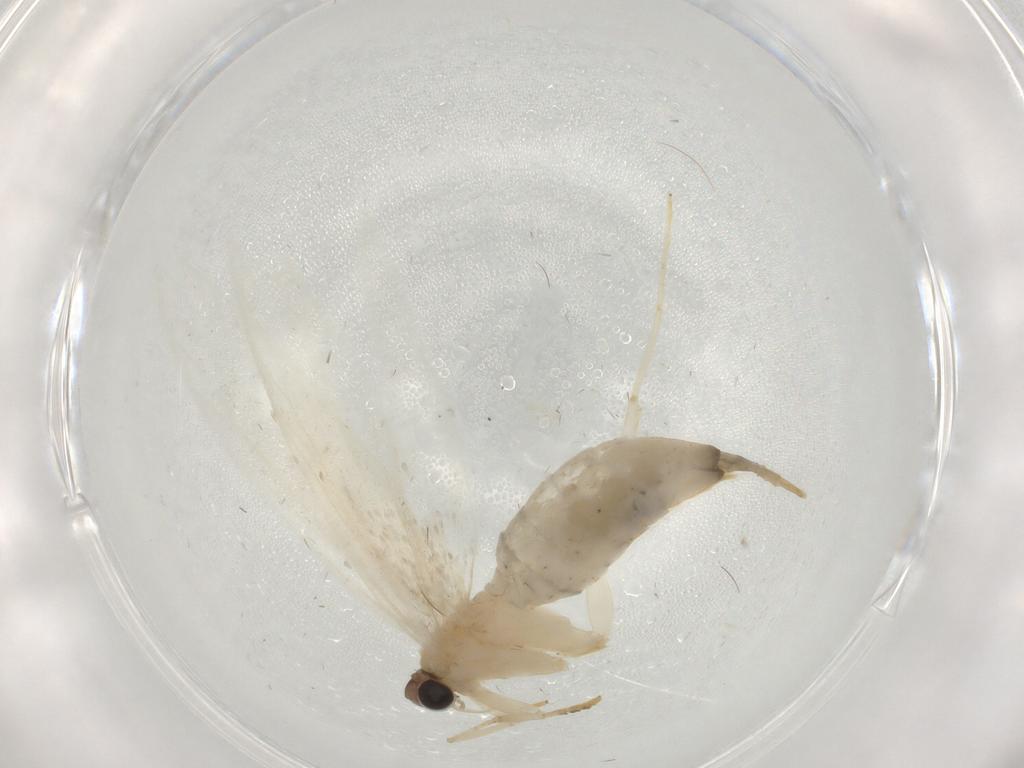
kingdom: Animalia
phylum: Arthropoda
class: Insecta
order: Lepidoptera
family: Tineidae
